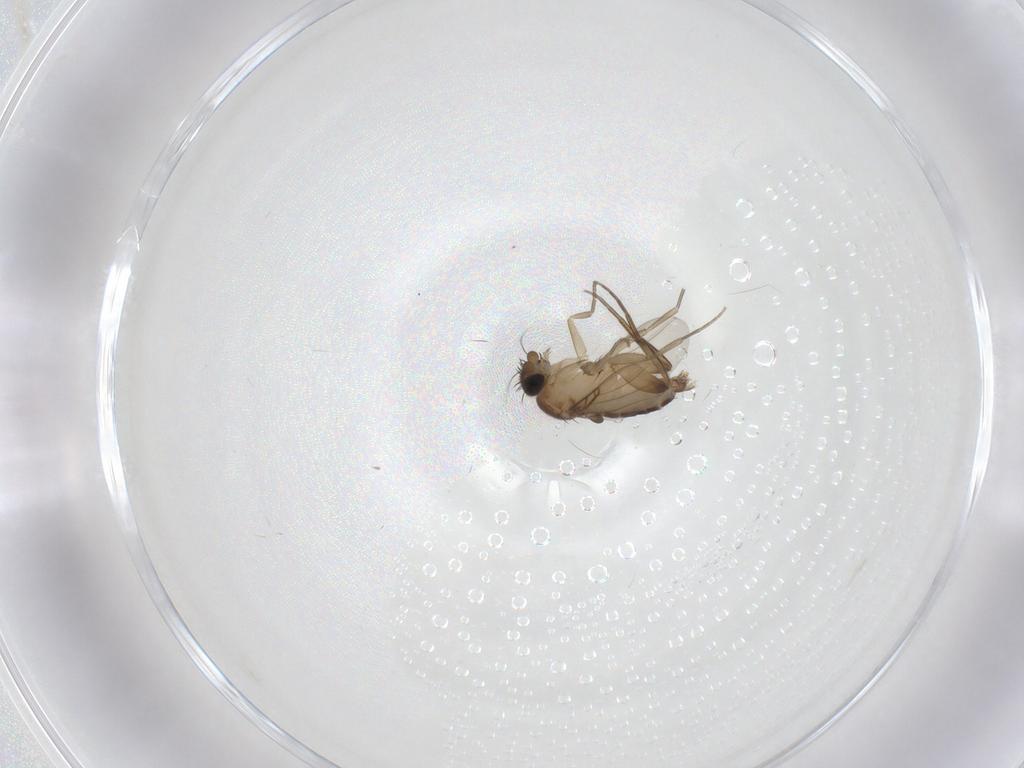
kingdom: Animalia
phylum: Arthropoda
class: Insecta
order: Diptera
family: Phoridae
